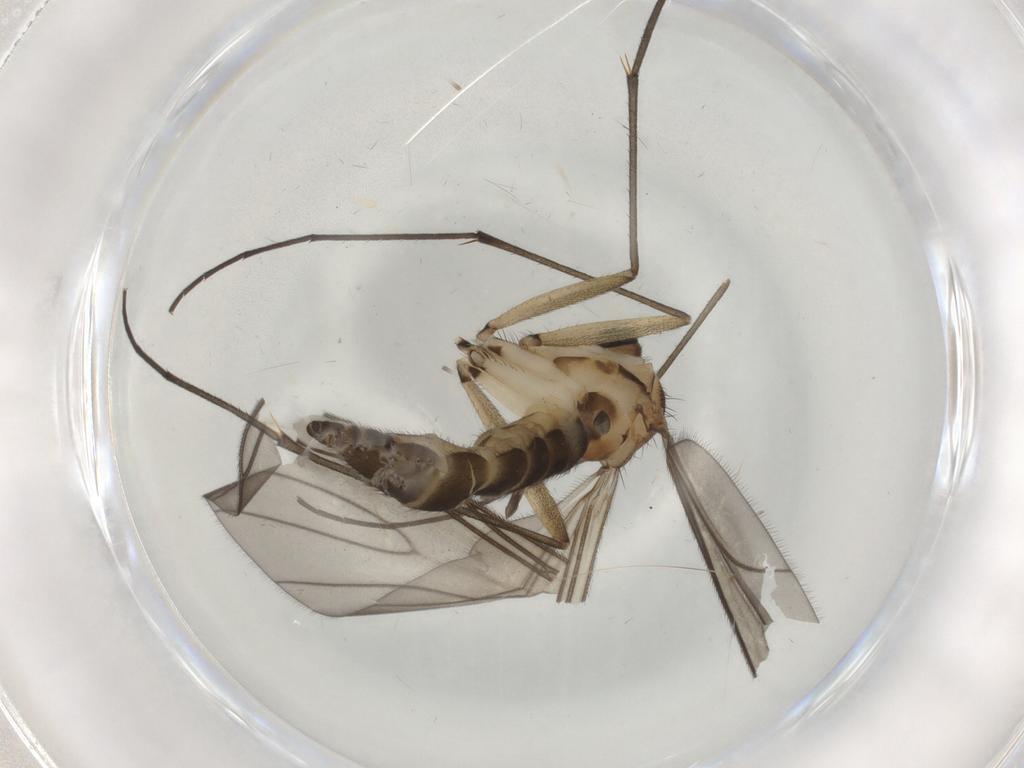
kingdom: Animalia
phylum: Arthropoda
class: Insecta
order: Diptera
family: Sciaridae
